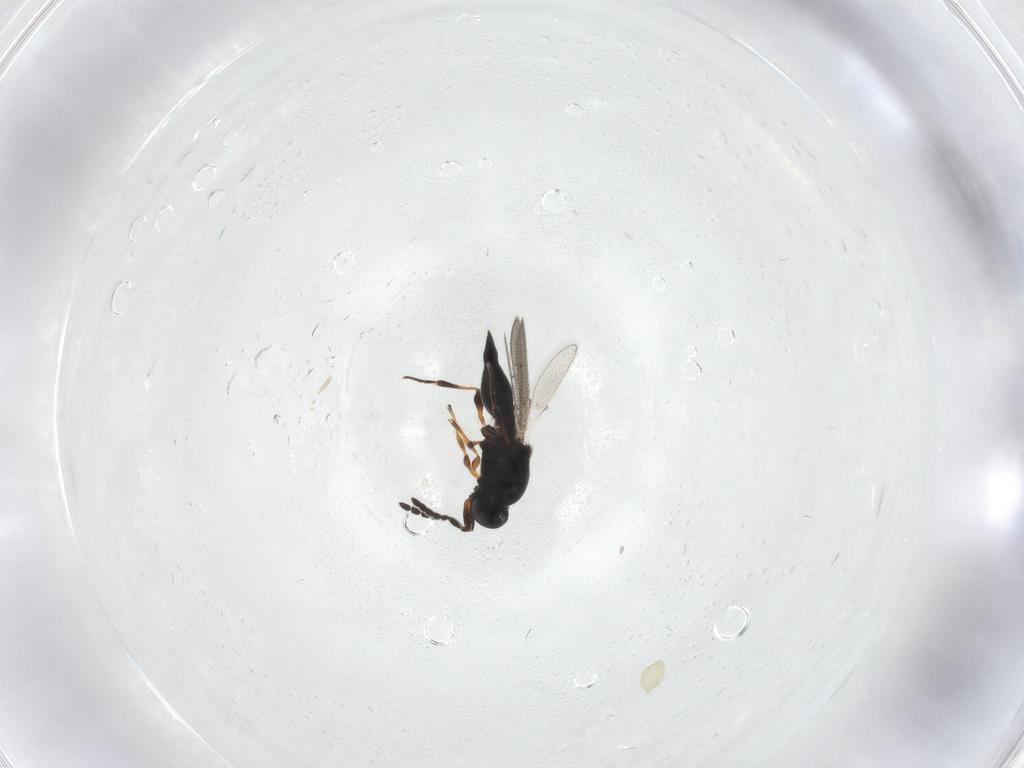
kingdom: Animalia
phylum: Arthropoda
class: Insecta
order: Hymenoptera
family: Platygastridae
